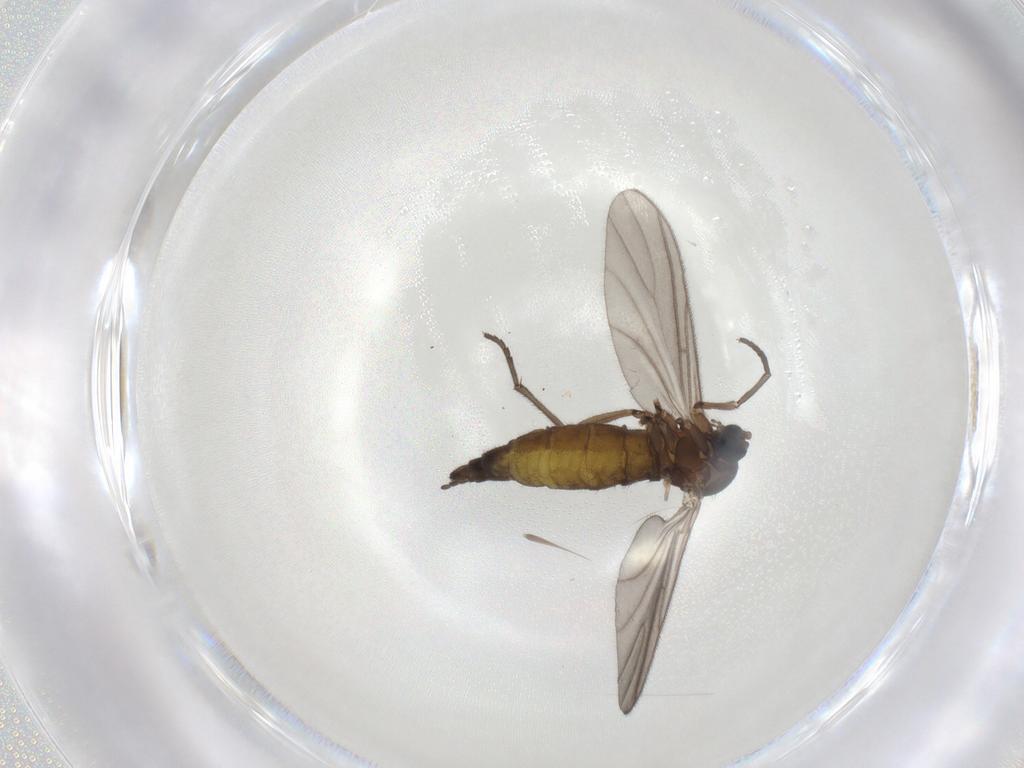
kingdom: Animalia
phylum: Arthropoda
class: Insecta
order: Diptera
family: Sciaridae
